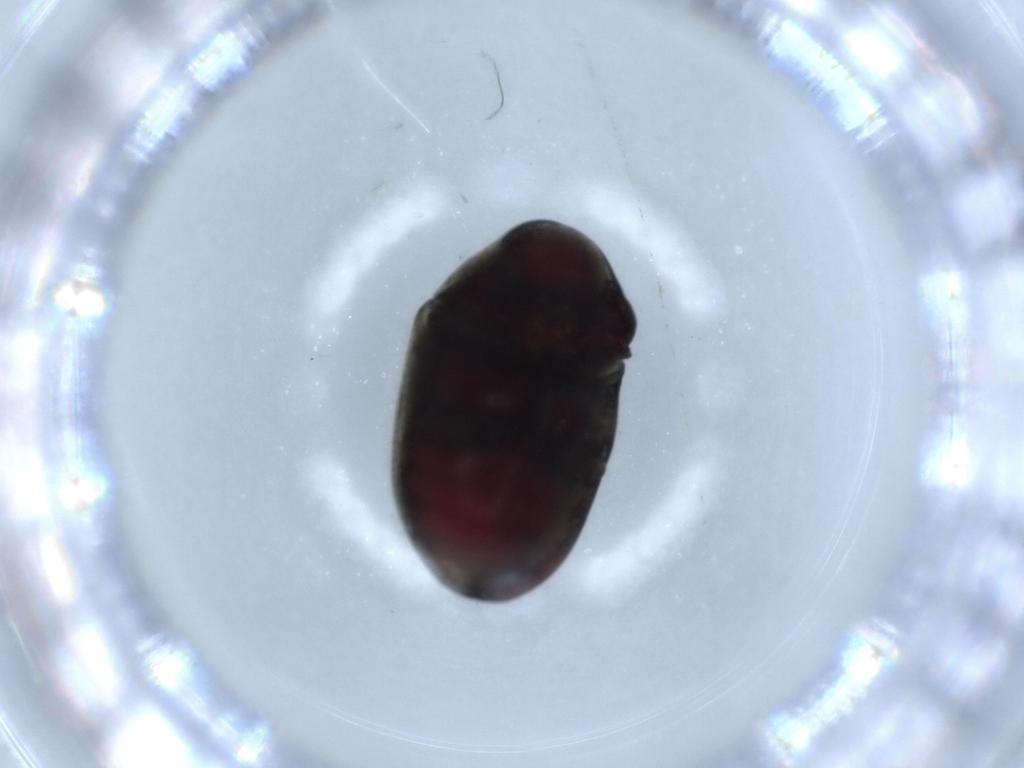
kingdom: Animalia
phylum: Arthropoda
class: Insecta
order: Coleoptera
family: Ptinidae
